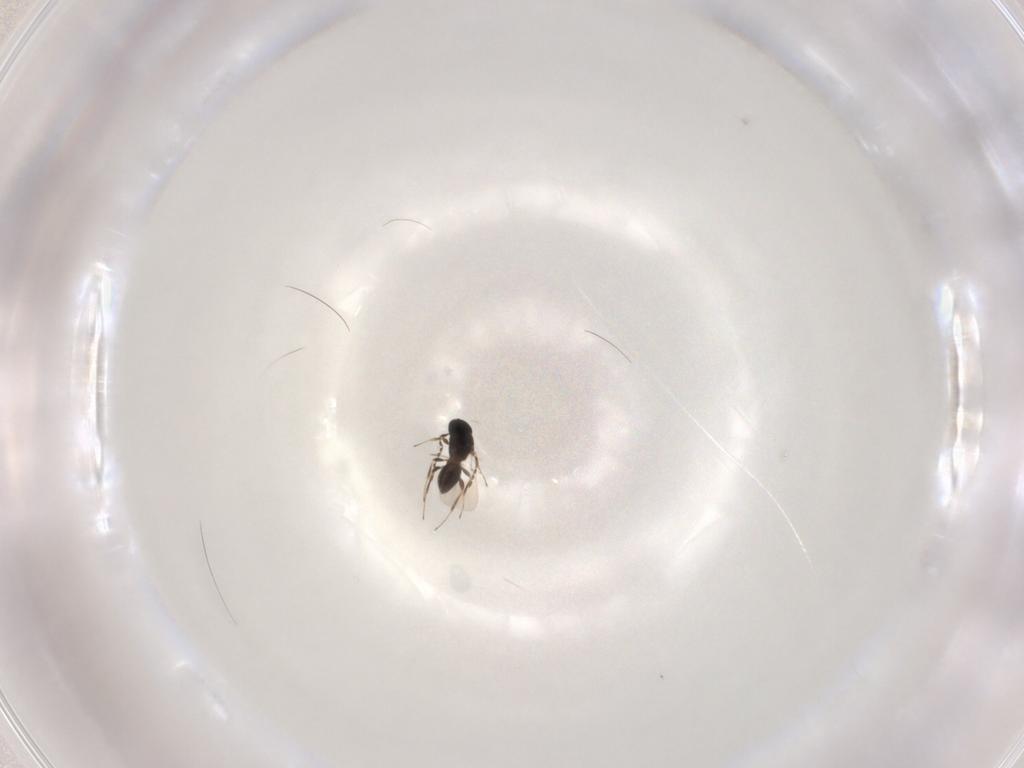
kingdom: Animalia
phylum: Arthropoda
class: Insecta
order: Hymenoptera
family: Platygastridae
